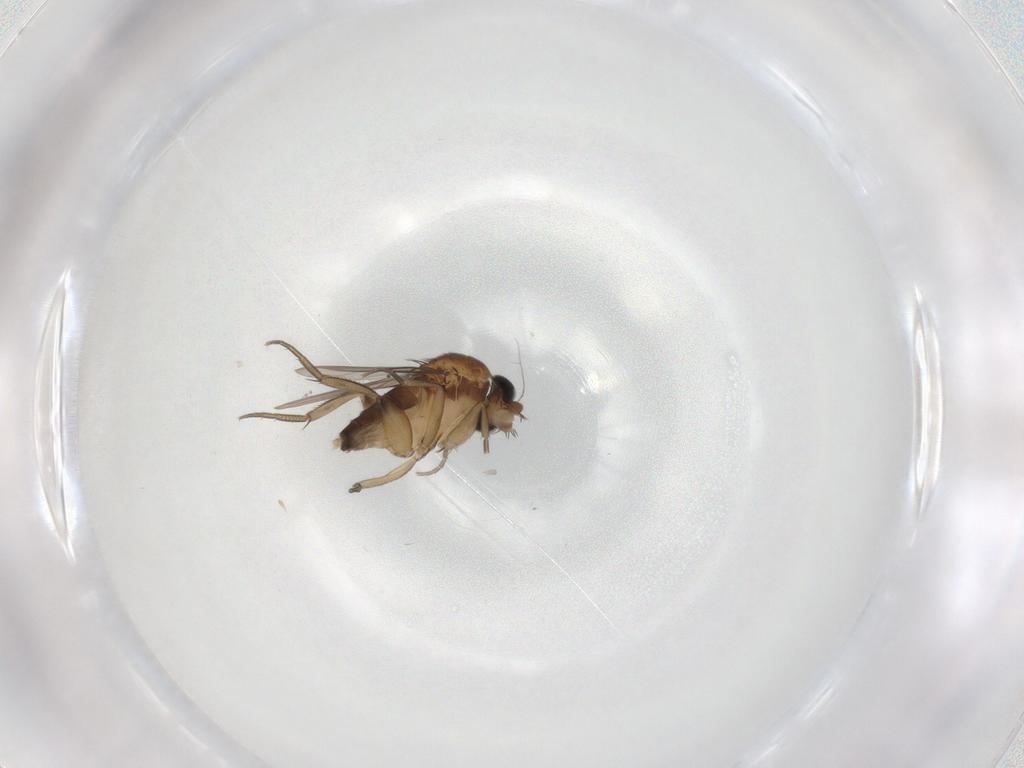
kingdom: Animalia
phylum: Arthropoda
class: Insecta
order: Diptera
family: Phoridae
